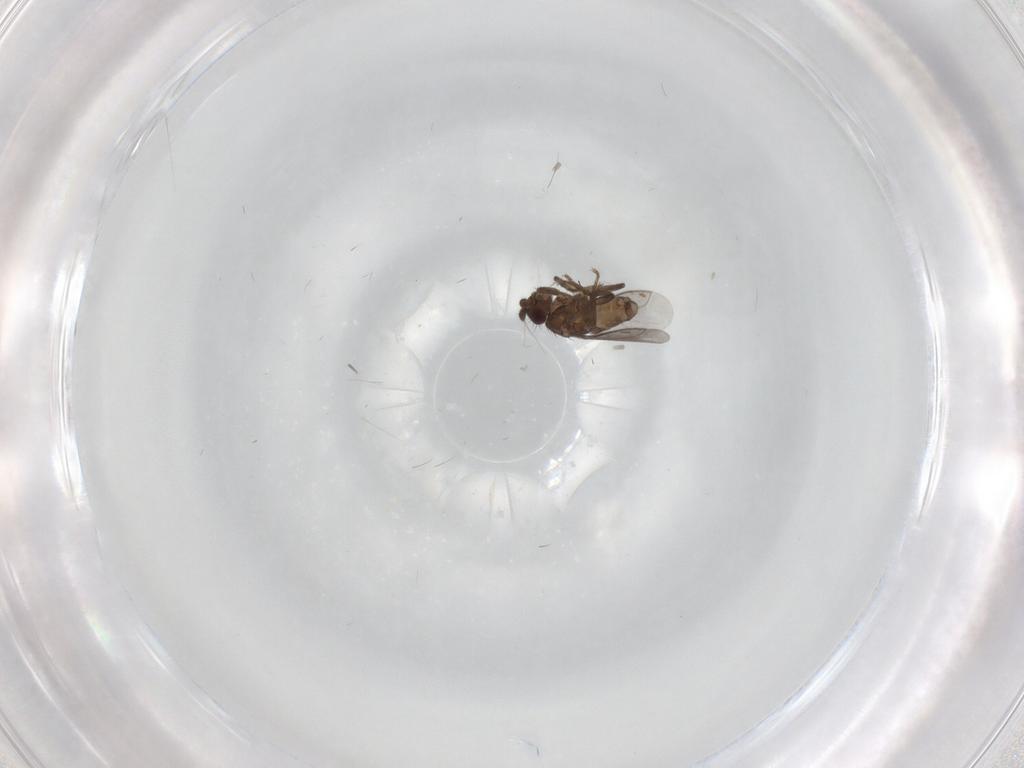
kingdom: Animalia
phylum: Arthropoda
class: Insecta
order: Diptera
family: Sphaeroceridae
